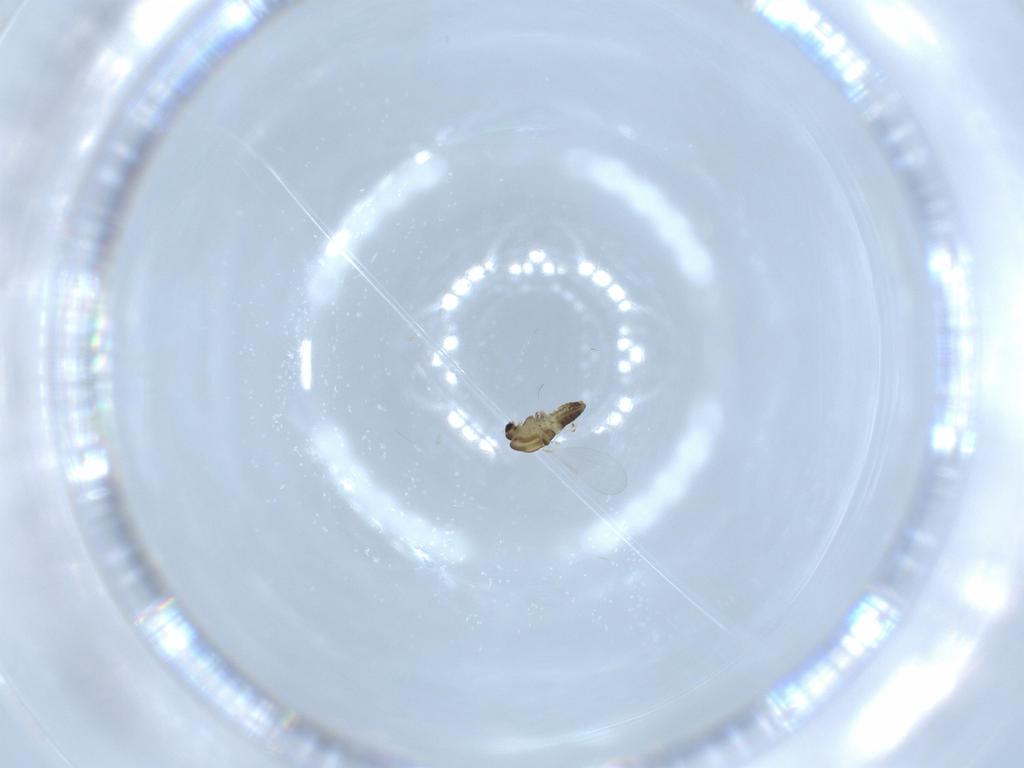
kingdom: Animalia
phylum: Arthropoda
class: Insecta
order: Diptera
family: Chironomidae
